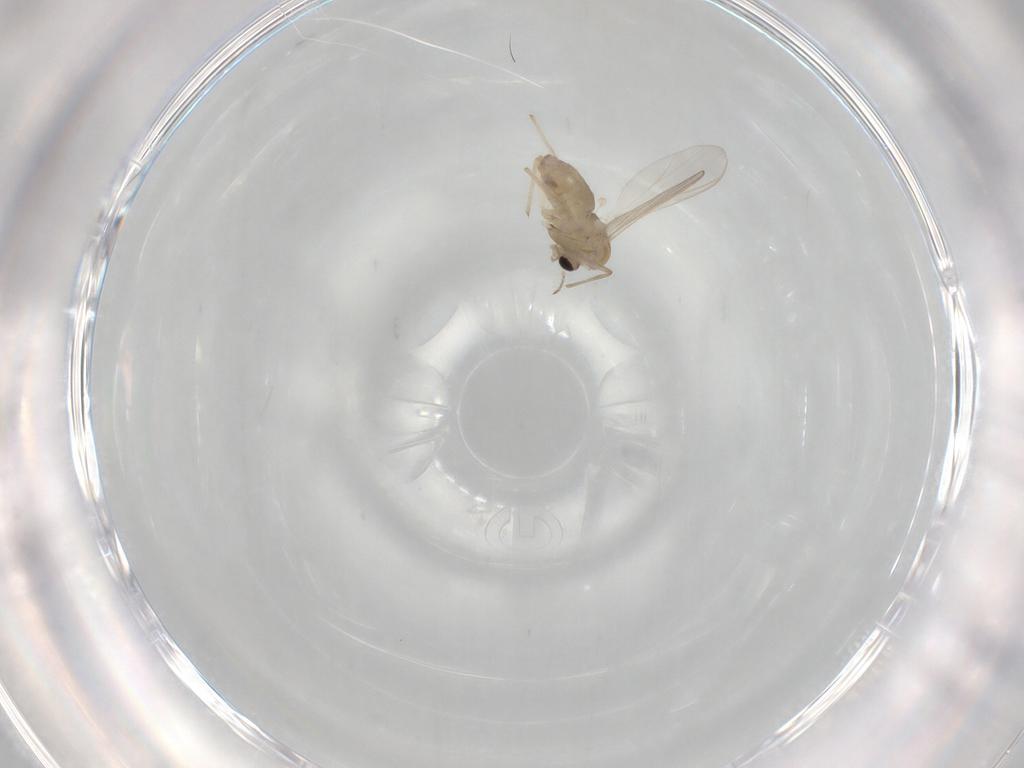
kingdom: Animalia
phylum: Arthropoda
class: Insecta
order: Diptera
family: Chironomidae
